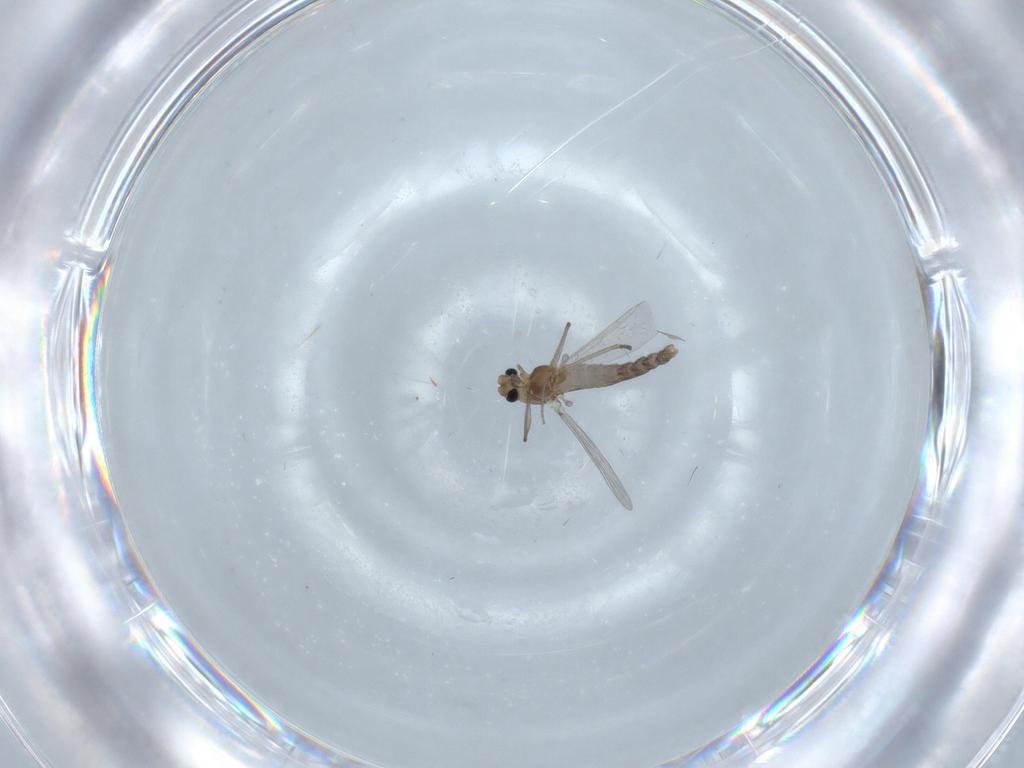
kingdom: Animalia
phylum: Arthropoda
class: Insecta
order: Diptera
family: Chironomidae
